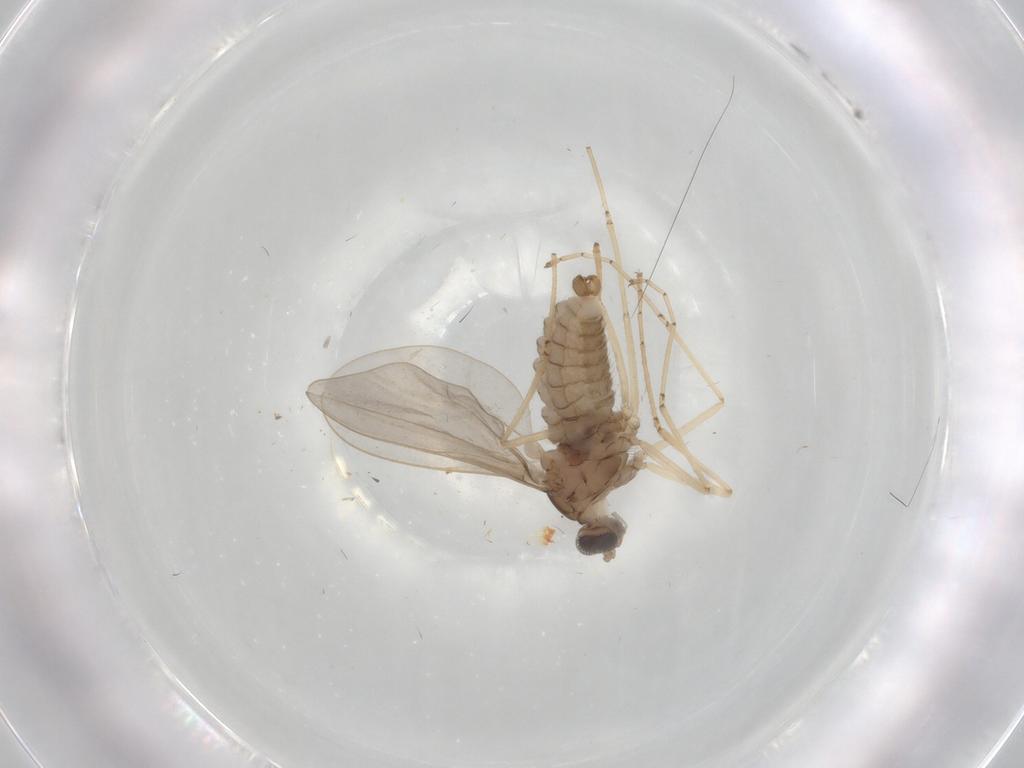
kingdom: Animalia
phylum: Arthropoda
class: Insecta
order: Diptera
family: Cecidomyiidae
